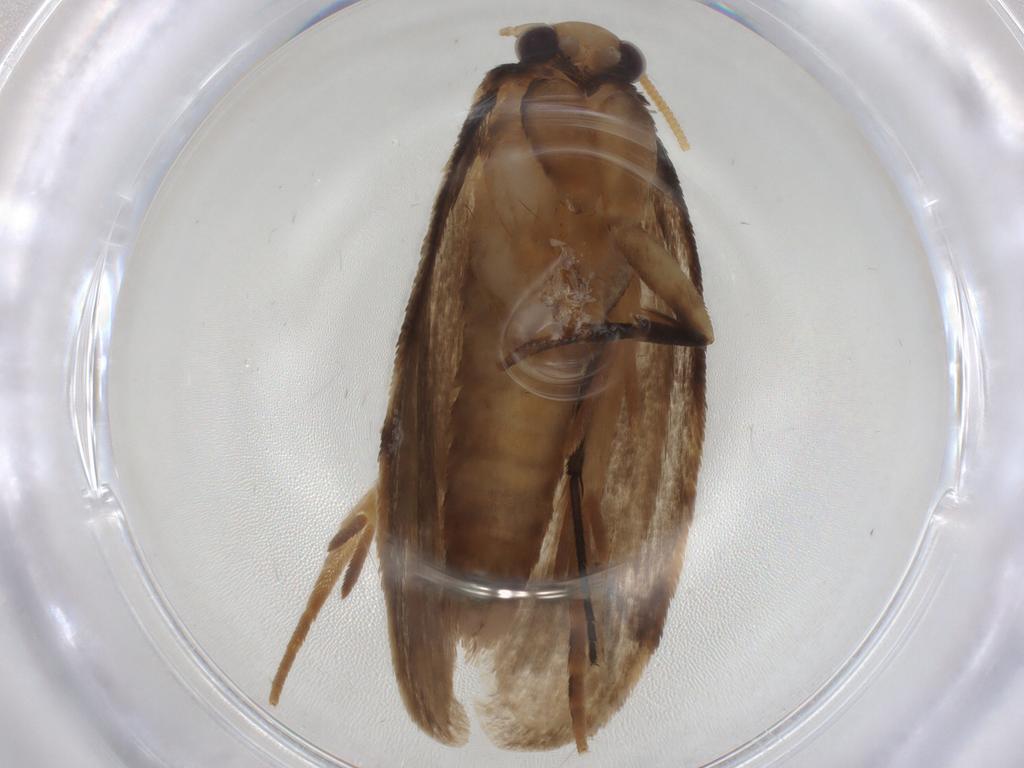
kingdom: Animalia
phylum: Arthropoda
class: Insecta
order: Lepidoptera
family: Tineidae
